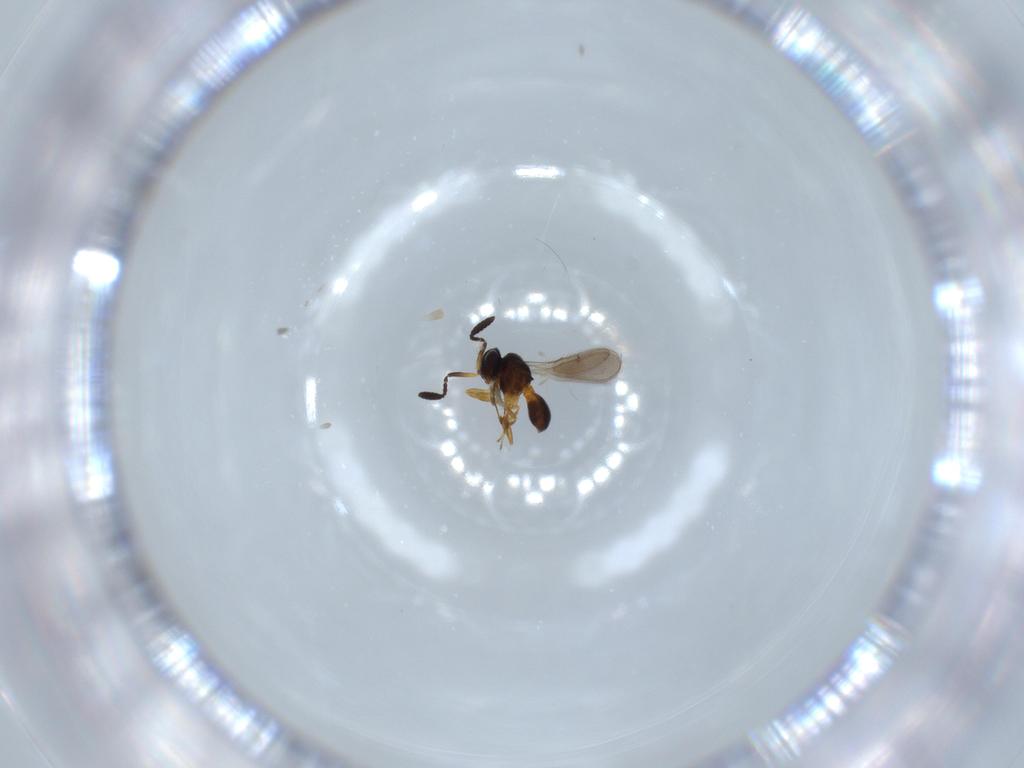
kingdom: Animalia
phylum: Arthropoda
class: Insecta
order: Hymenoptera
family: Scelionidae
